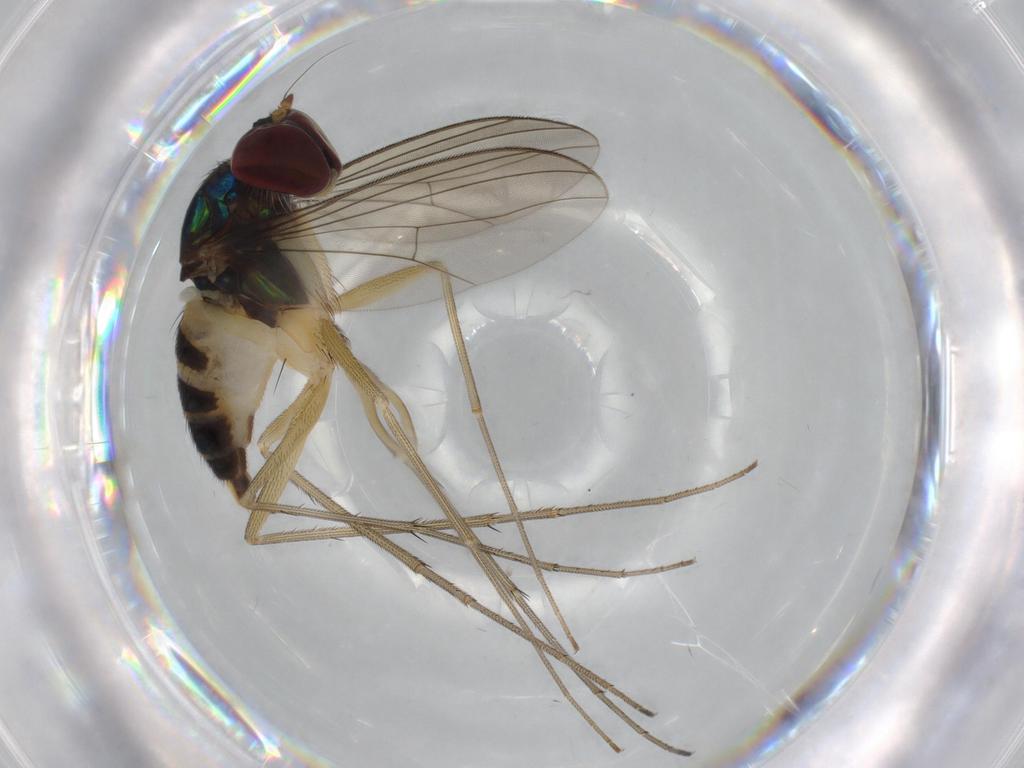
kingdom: Animalia
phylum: Arthropoda
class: Insecta
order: Diptera
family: Dolichopodidae
